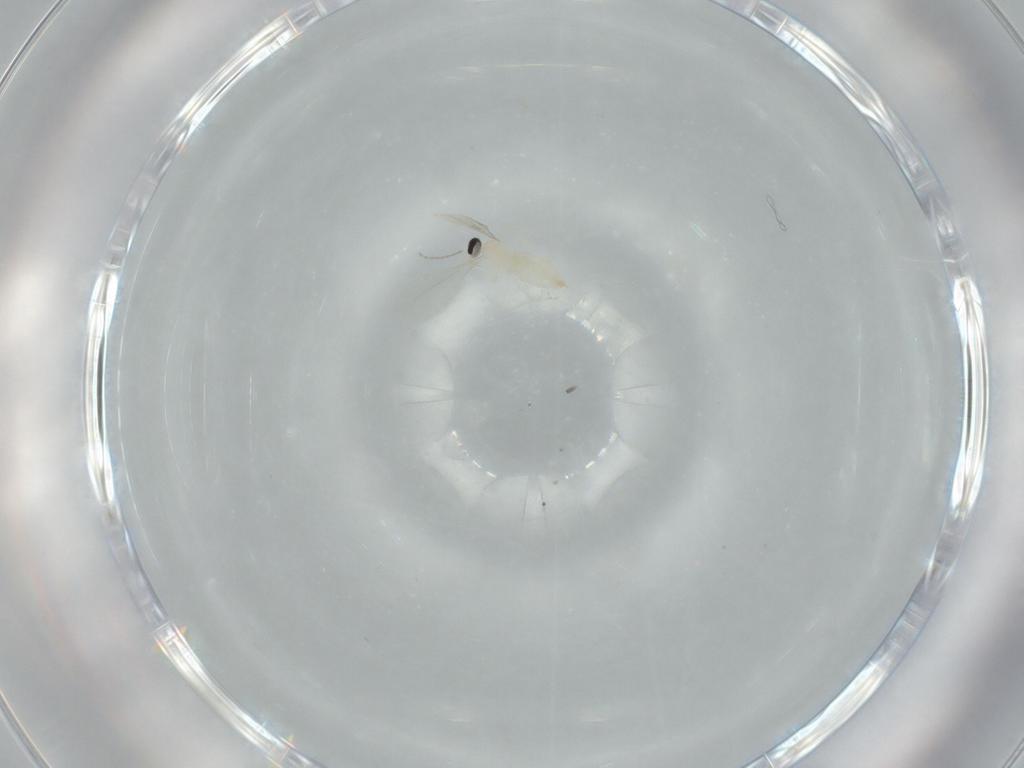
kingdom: Animalia
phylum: Arthropoda
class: Insecta
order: Diptera
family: Cecidomyiidae
